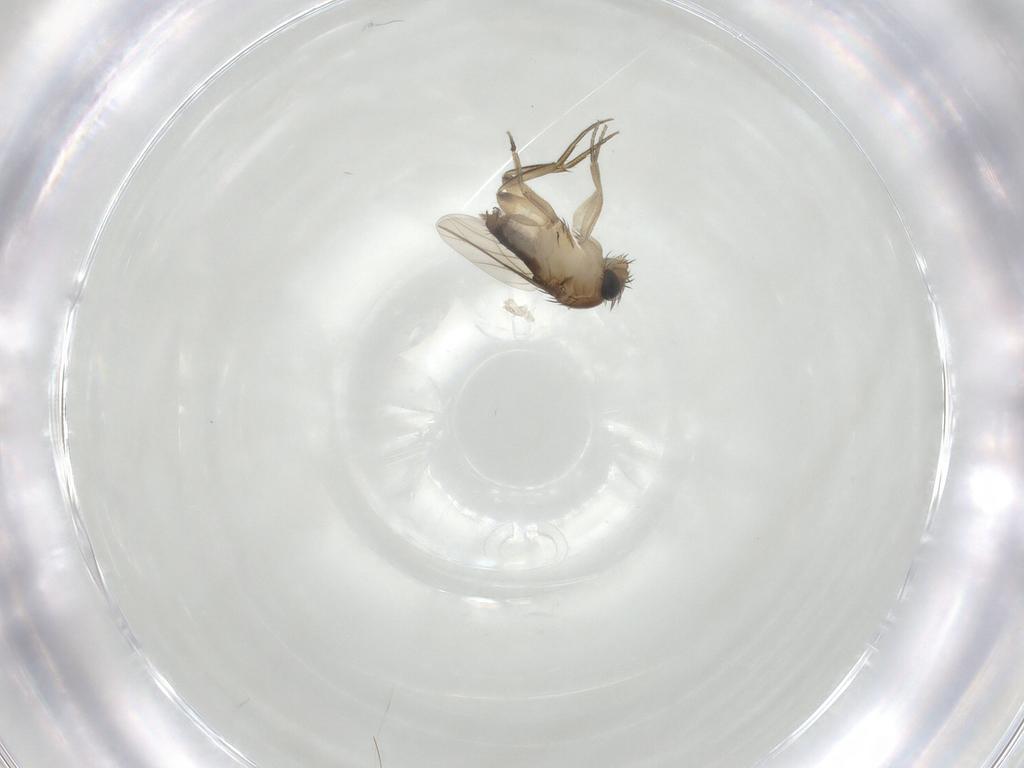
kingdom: Animalia
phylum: Arthropoda
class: Insecta
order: Diptera
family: Phoridae
